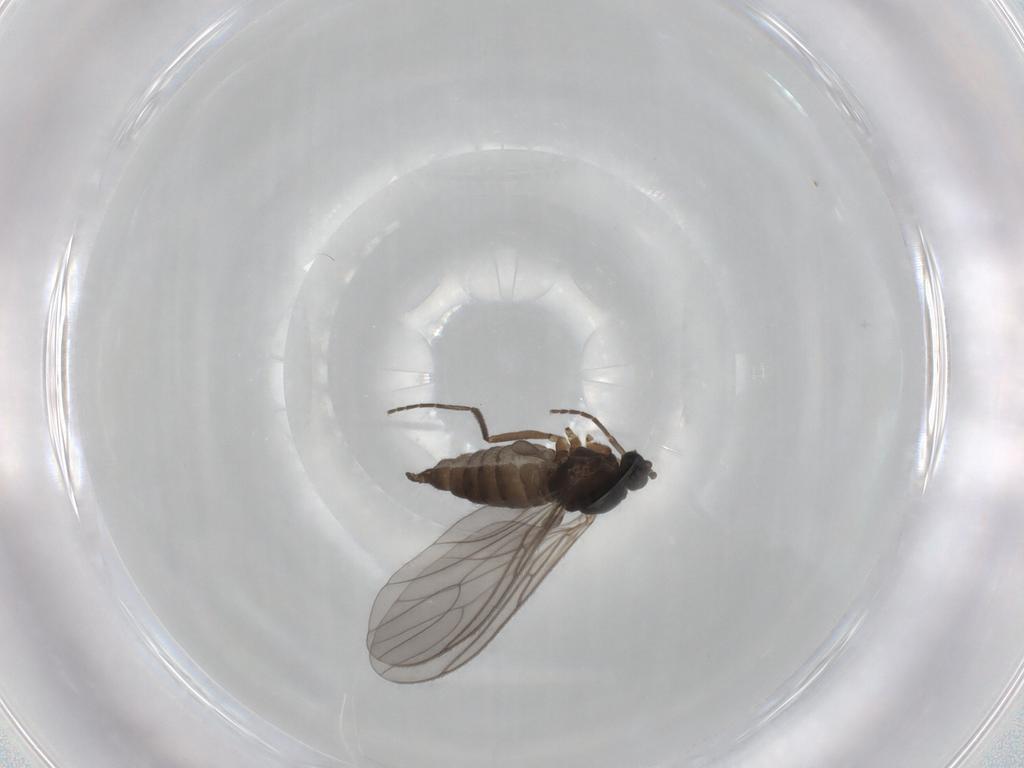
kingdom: Animalia
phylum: Arthropoda
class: Insecta
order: Diptera
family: Sciaridae
